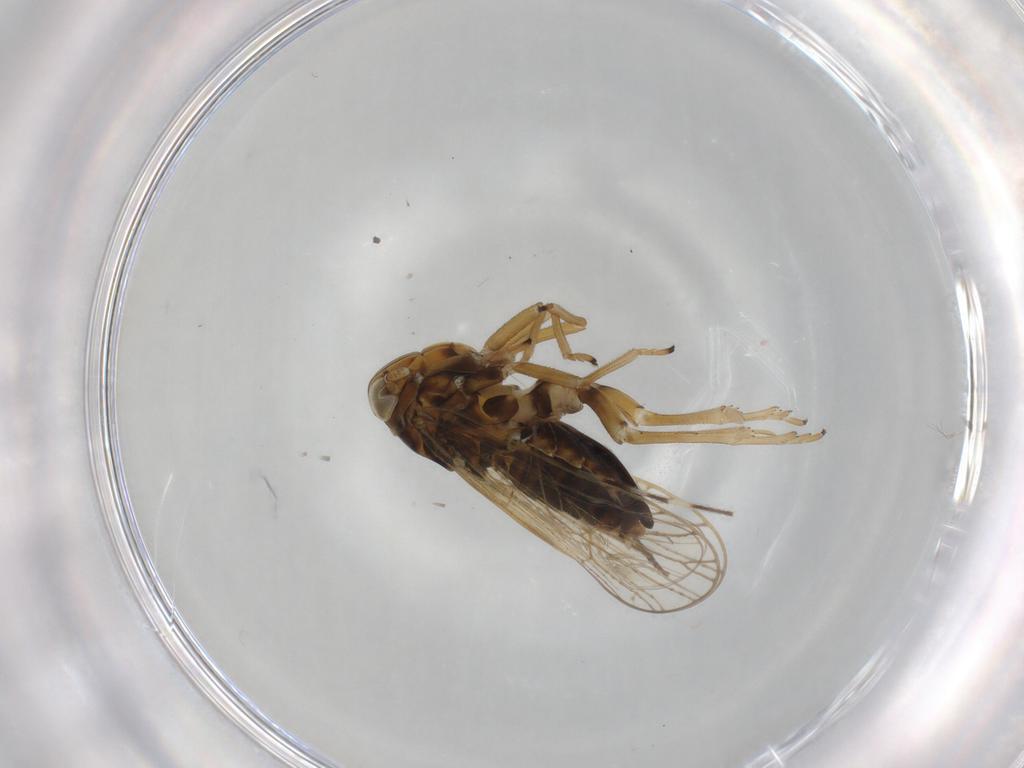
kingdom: Animalia
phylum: Arthropoda
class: Insecta
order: Hemiptera
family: Delphacidae
